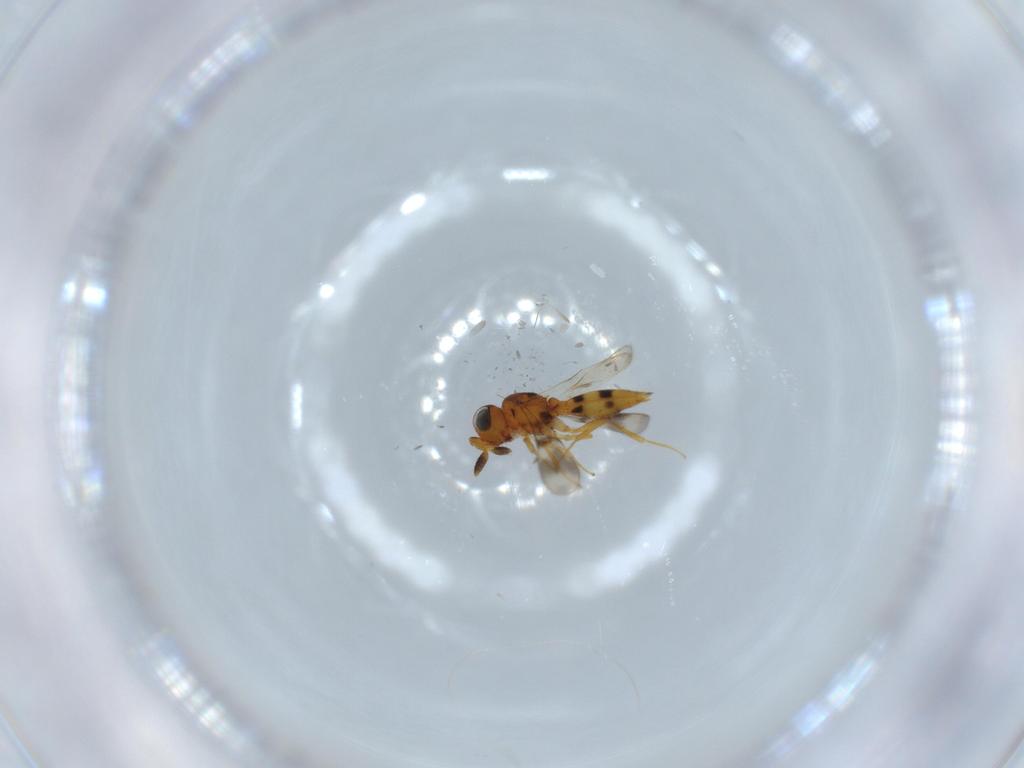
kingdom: Animalia
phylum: Arthropoda
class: Insecta
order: Hymenoptera
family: Scelionidae
